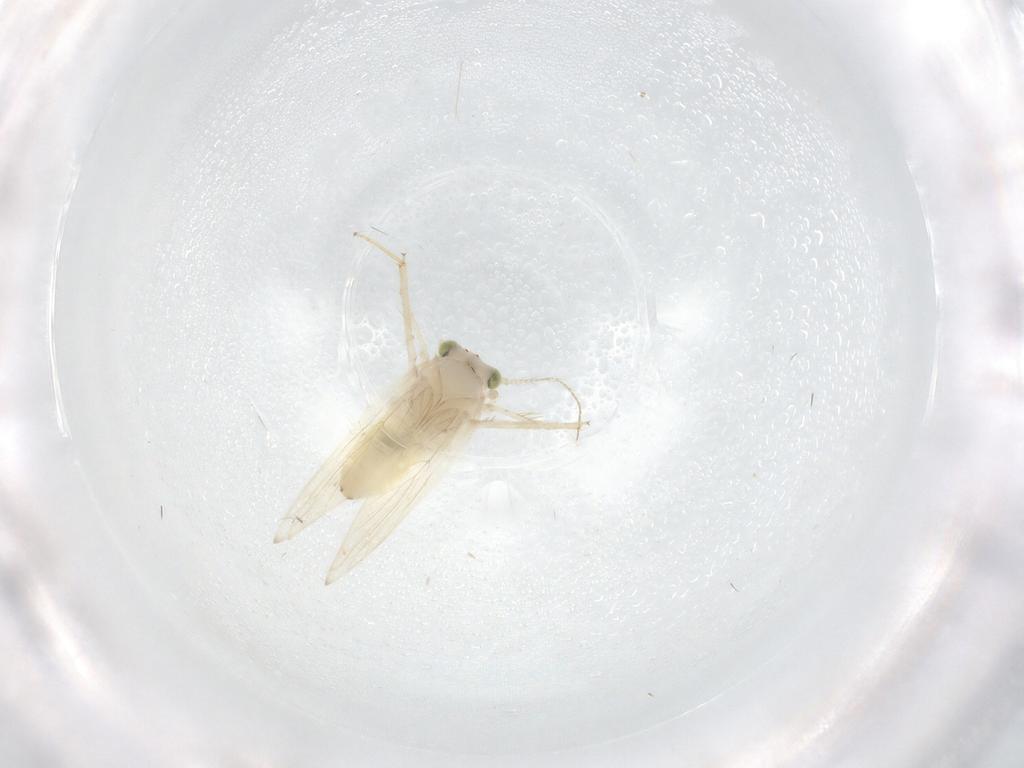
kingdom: Animalia
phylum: Arthropoda
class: Insecta
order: Psocodea
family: Lepidopsocidae
